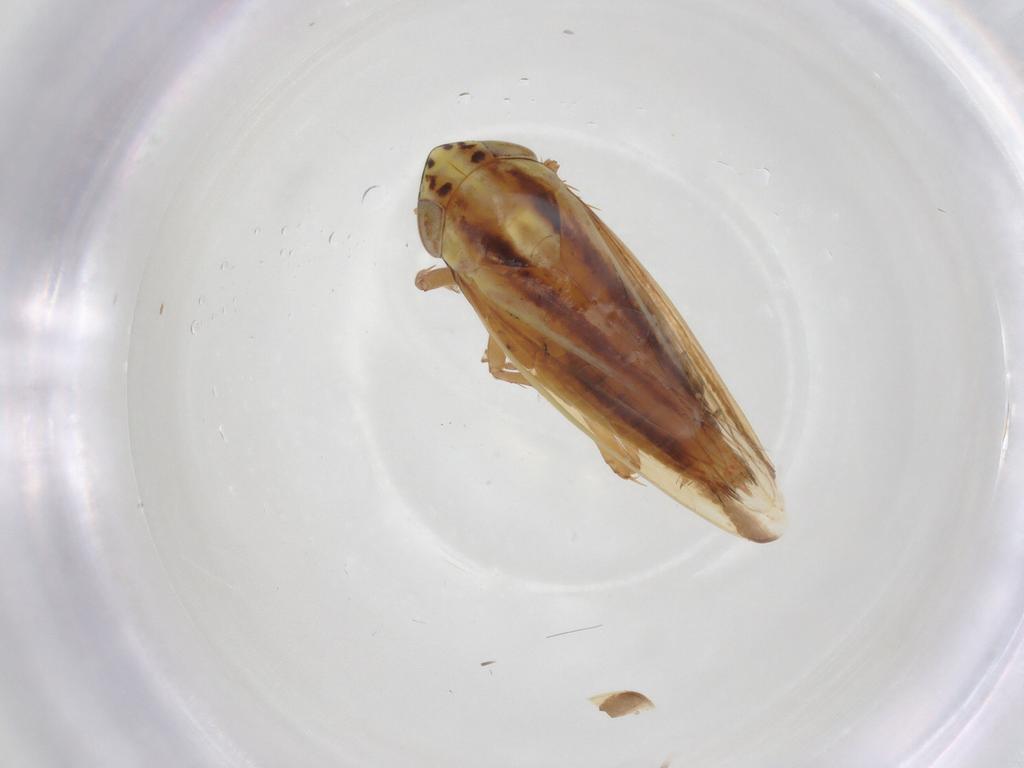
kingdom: Animalia
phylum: Arthropoda
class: Insecta
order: Hemiptera
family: Cicadellidae
